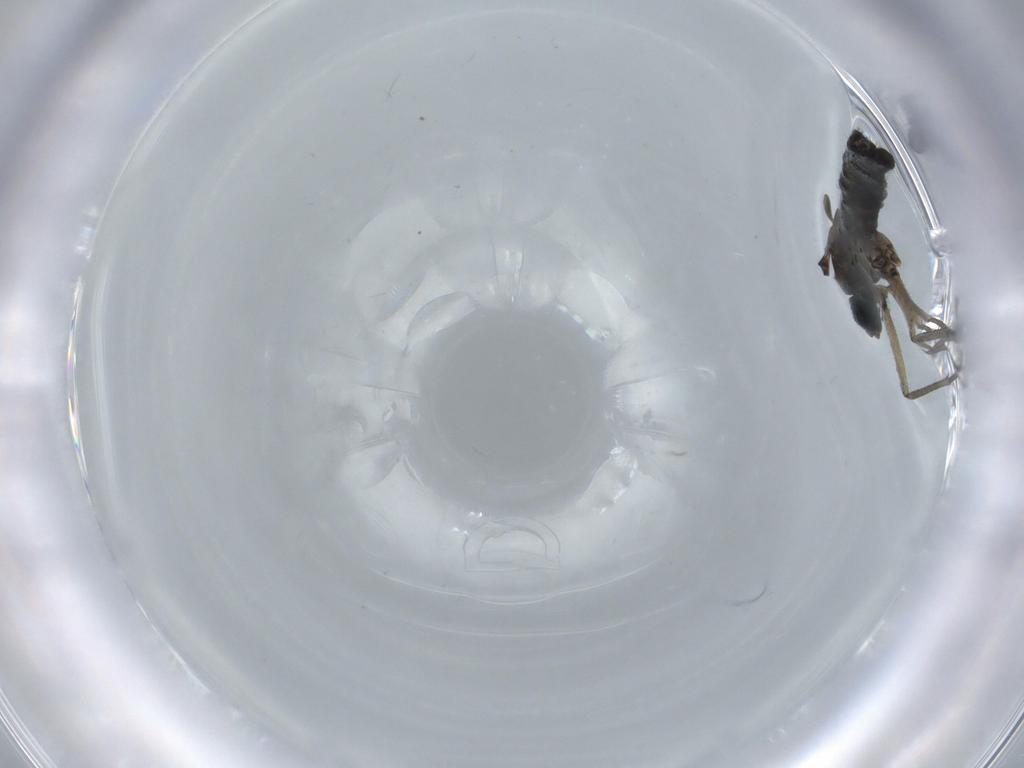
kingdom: Animalia
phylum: Arthropoda
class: Insecta
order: Diptera
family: Sciaridae
